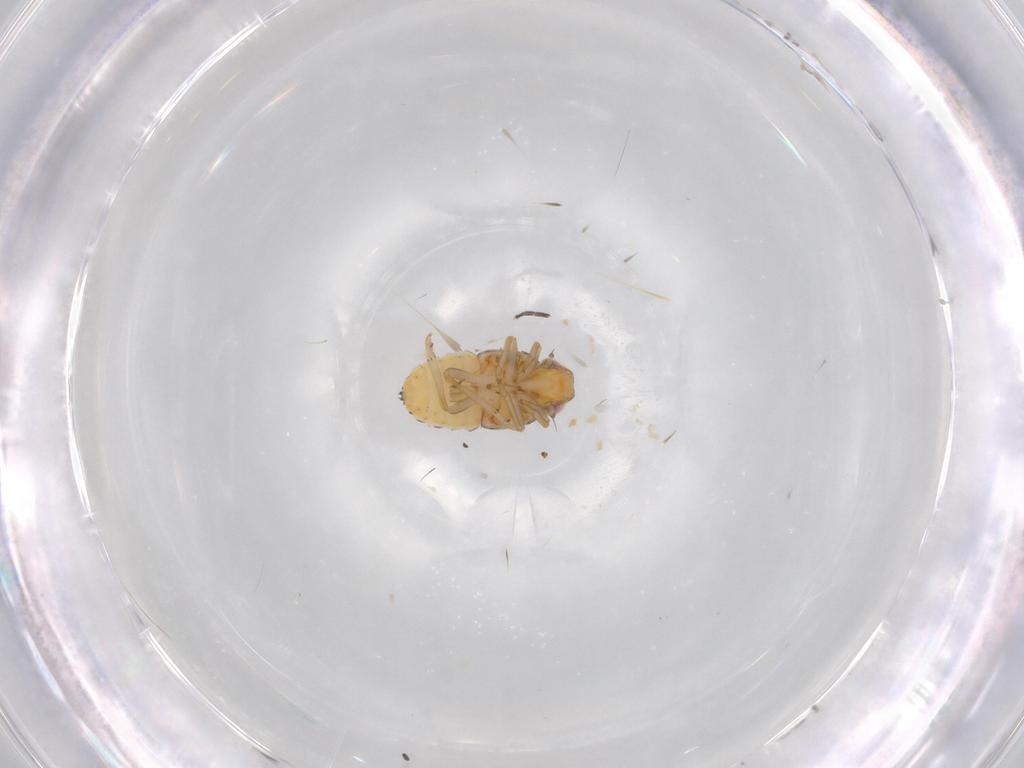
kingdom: Animalia
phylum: Arthropoda
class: Insecta
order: Hemiptera
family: Issidae
